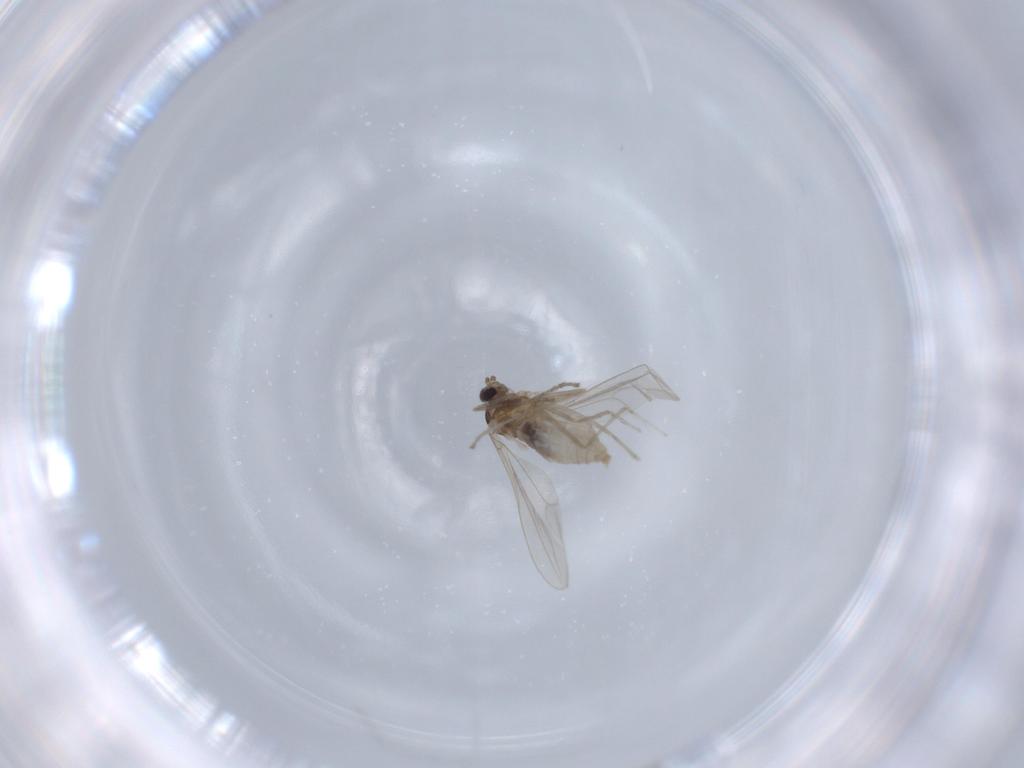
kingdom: Animalia
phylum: Arthropoda
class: Insecta
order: Diptera
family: Cecidomyiidae
